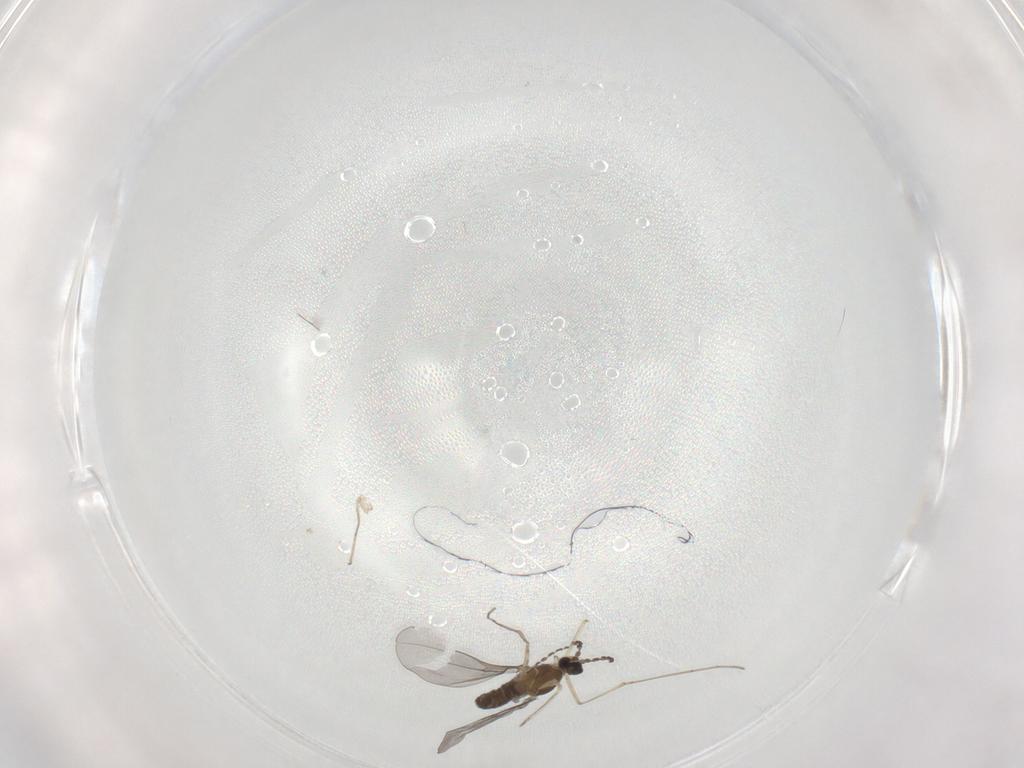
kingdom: Animalia
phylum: Arthropoda
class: Insecta
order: Diptera
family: Cecidomyiidae
